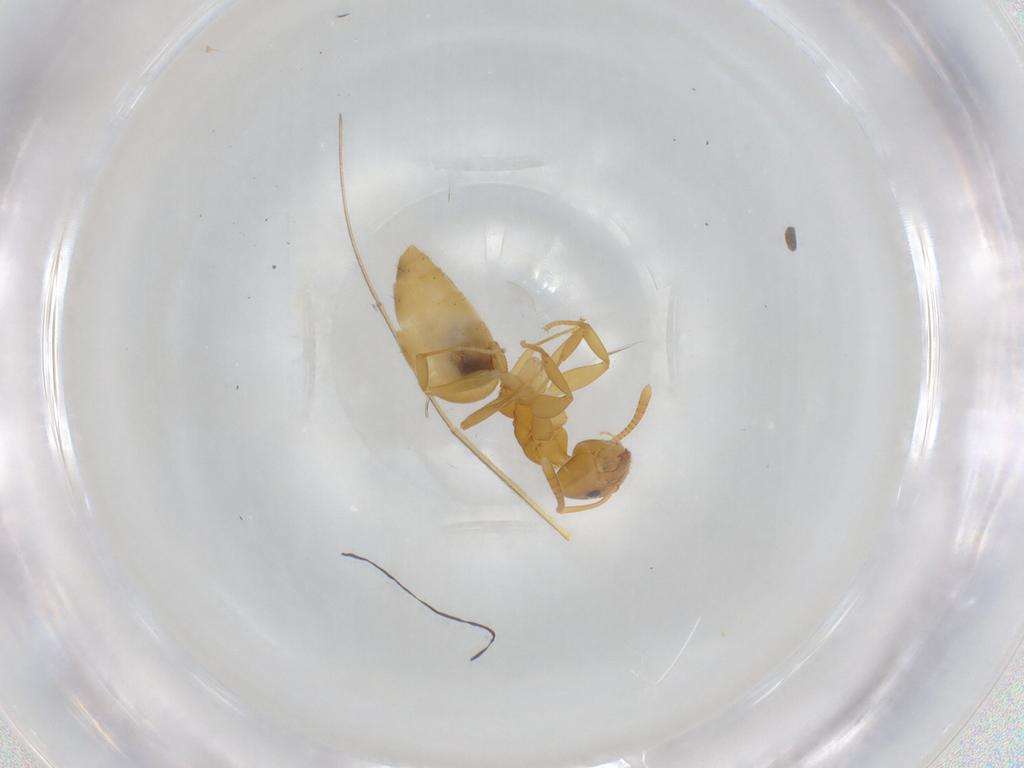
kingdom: Animalia
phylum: Arthropoda
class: Insecta
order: Hymenoptera
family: Formicidae
